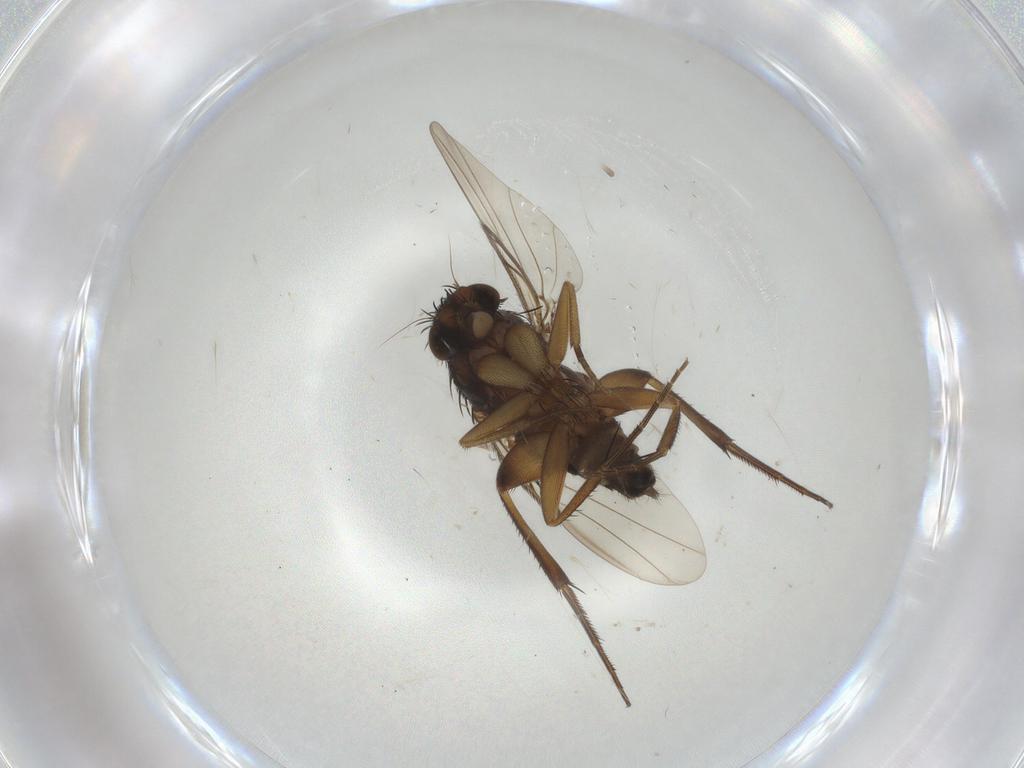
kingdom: Animalia
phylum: Arthropoda
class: Insecta
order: Diptera
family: Phoridae
